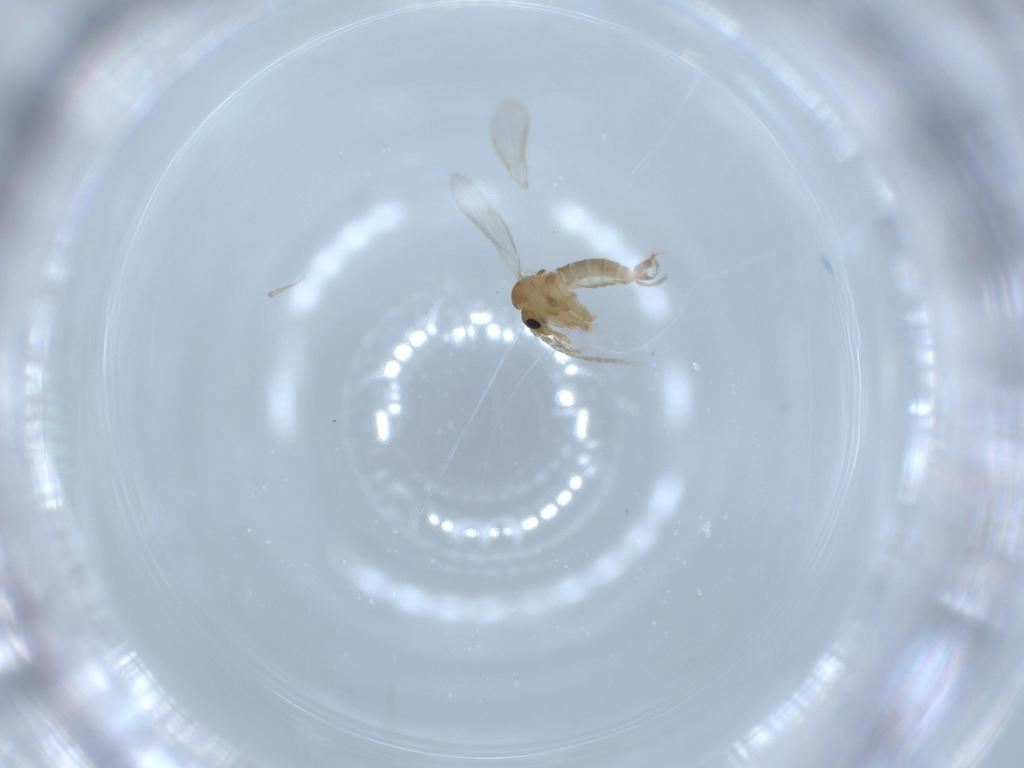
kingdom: Animalia
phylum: Arthropoda
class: Insecta
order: Diptera
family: Psychodidae
